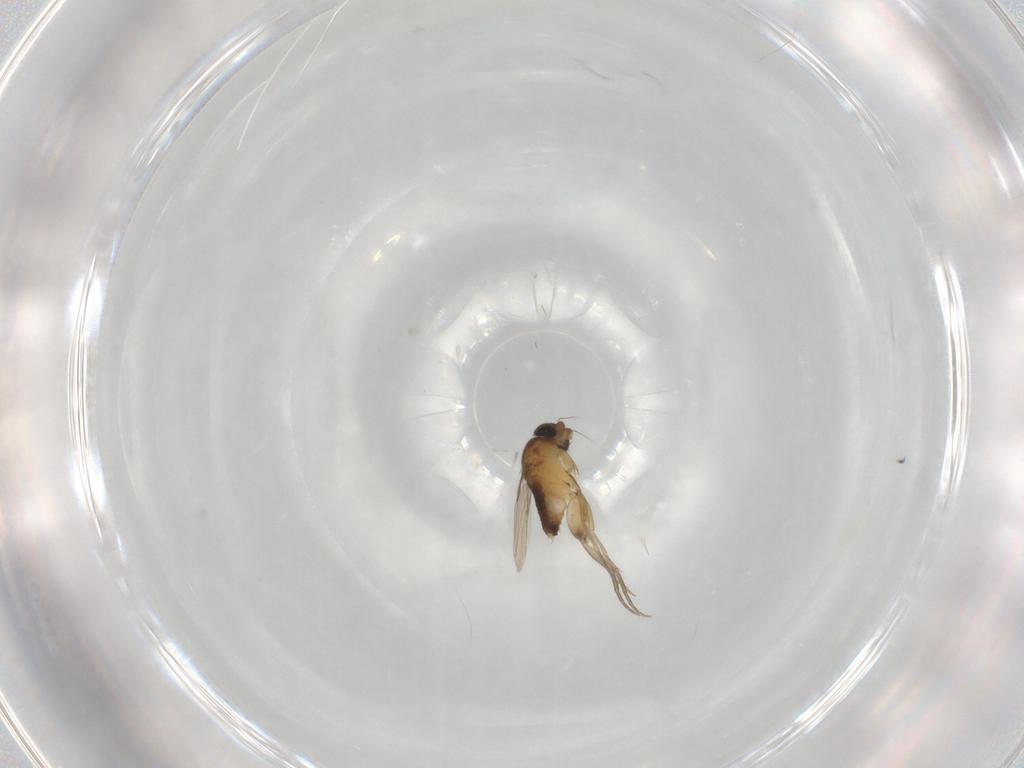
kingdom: Animalia
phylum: Arthropoda
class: Insecta
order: Diptera
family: Phoridae
